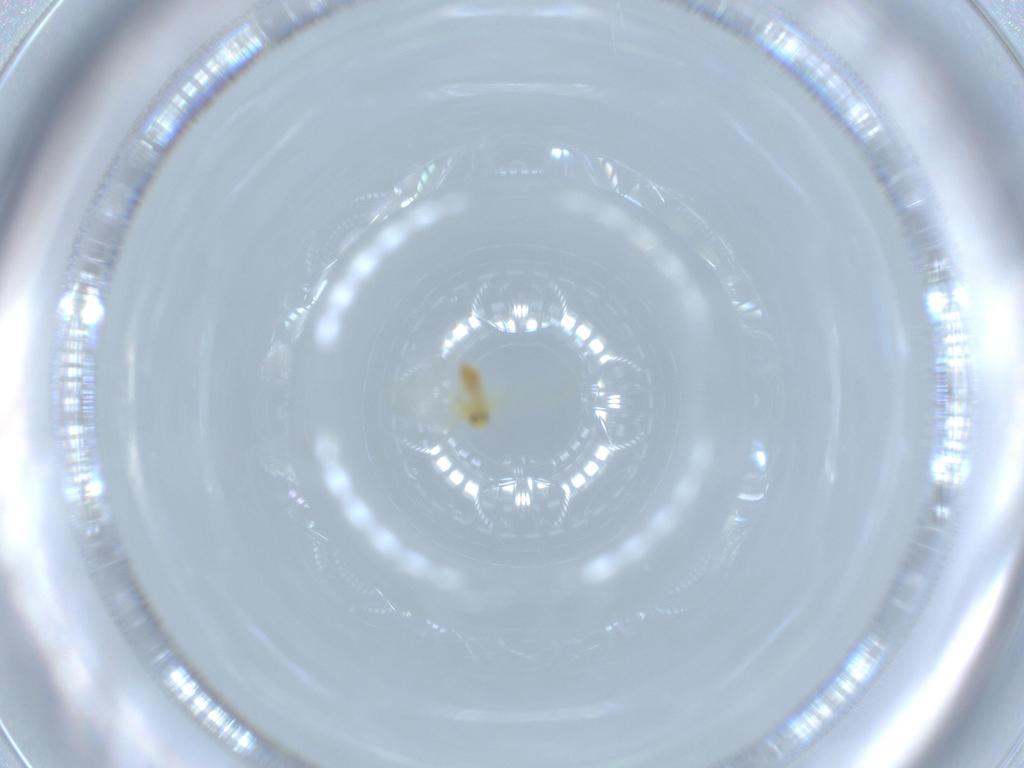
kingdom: Animalia
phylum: Arthropoda
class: Insecta
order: Hemiptera
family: Aleyrodidae
